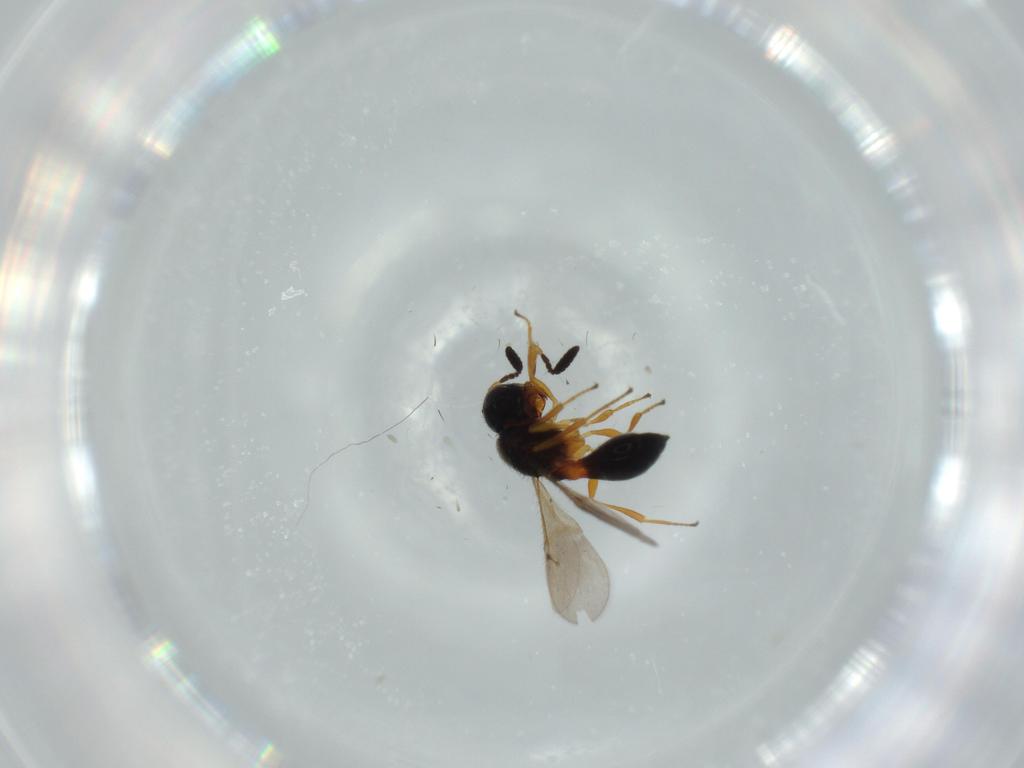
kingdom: Animalia
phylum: Arthropoda
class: Insecta
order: Hymenoptera
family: Scelionidae
